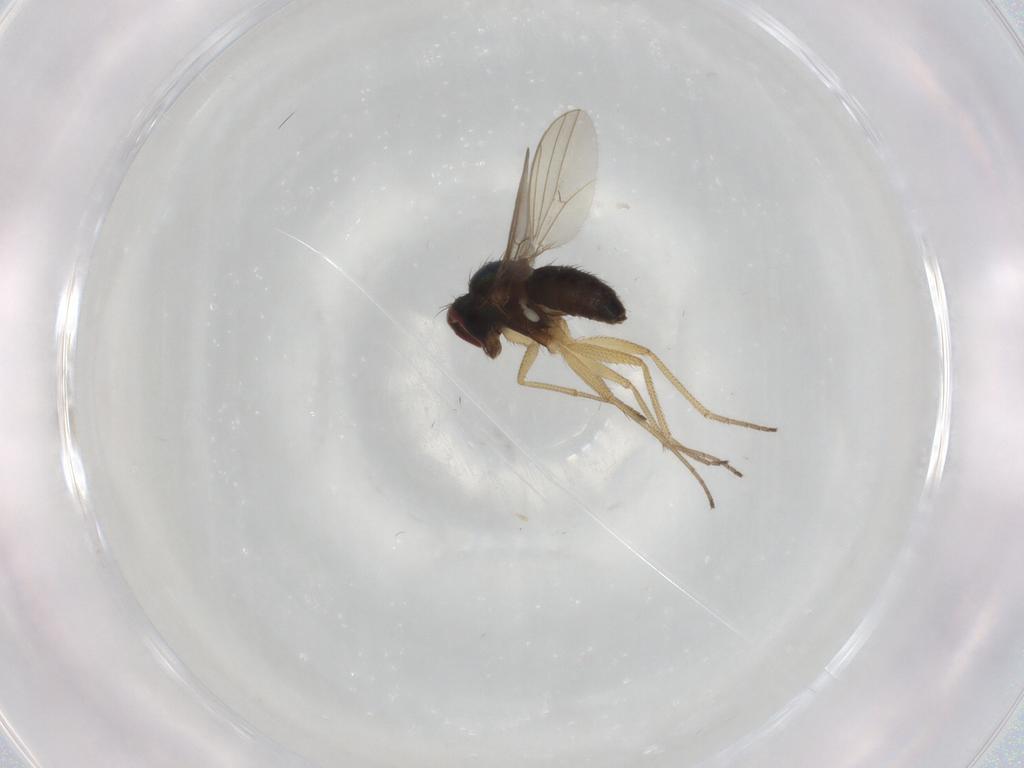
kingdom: Animalia
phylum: Arthropoda
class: Insecta
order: Diptera
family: Dolichopodidae
